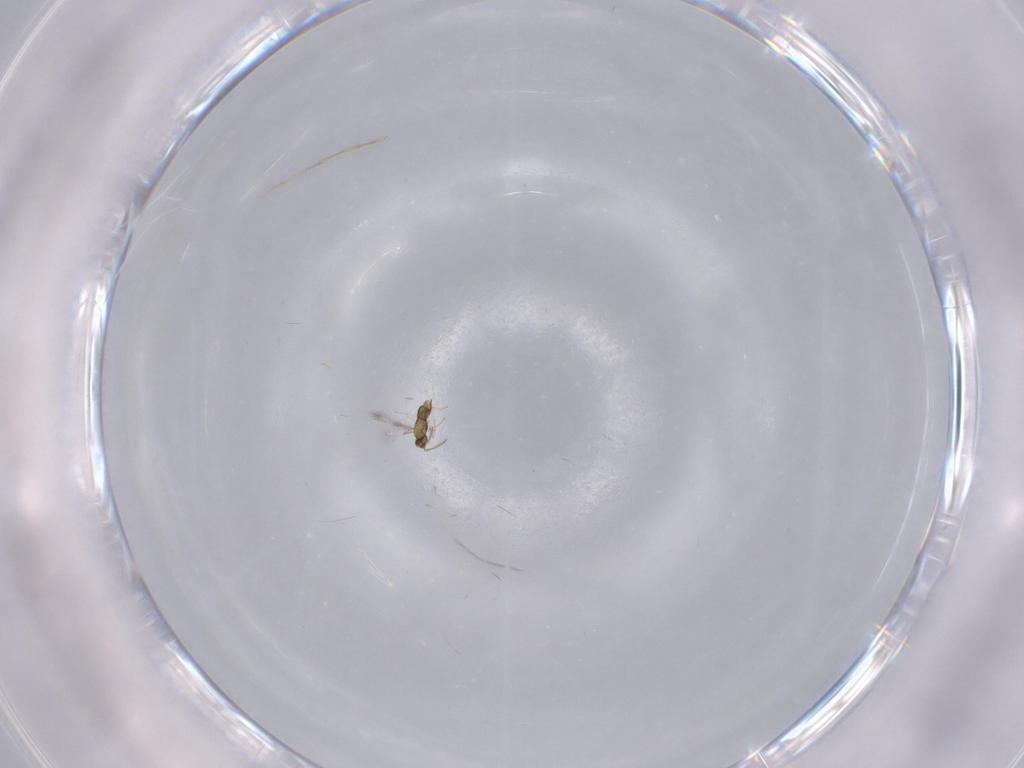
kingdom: Animalia
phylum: Arthropoda
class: Insecta
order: Hymenoptera
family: Aphelinidae
